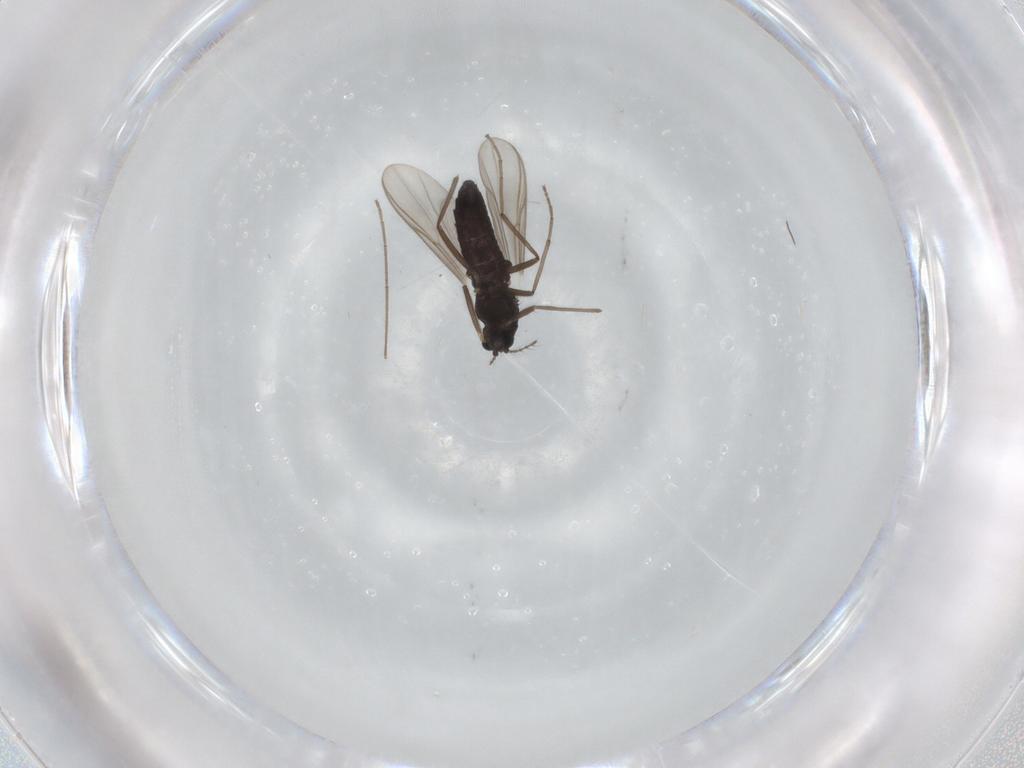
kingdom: Animalia
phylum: Arthropoda
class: Insecta
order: Diptera
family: Chironomidae
